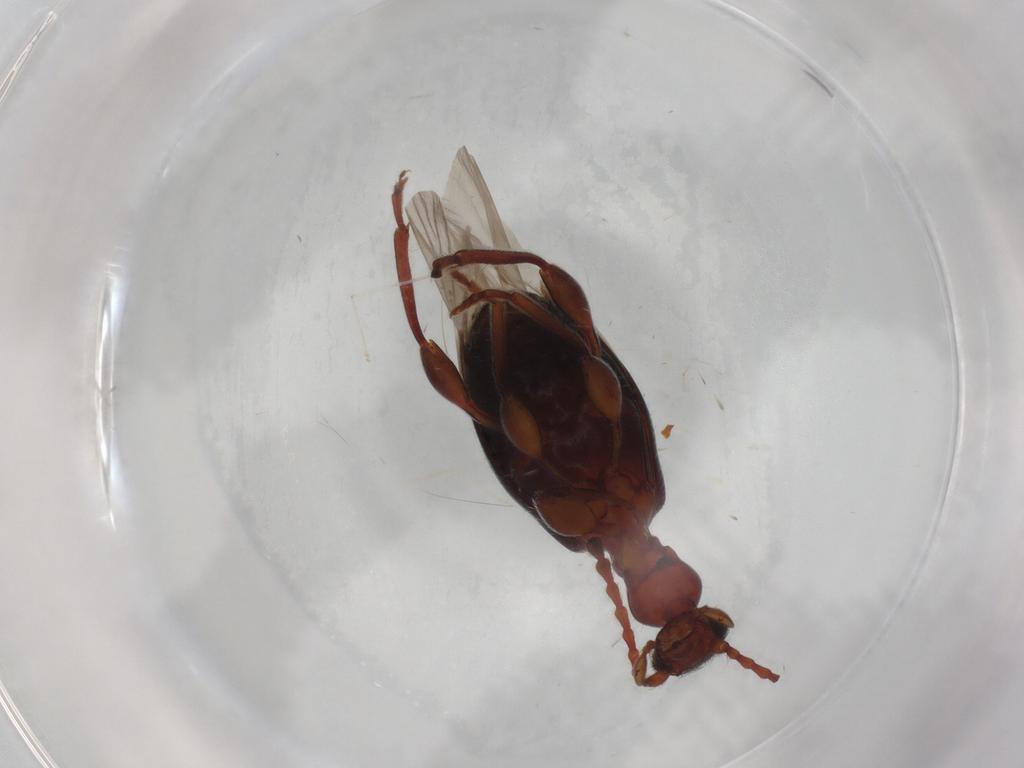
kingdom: Animalia
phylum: Arthropoda
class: Insecta
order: Coleoptera
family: Anthicidae
